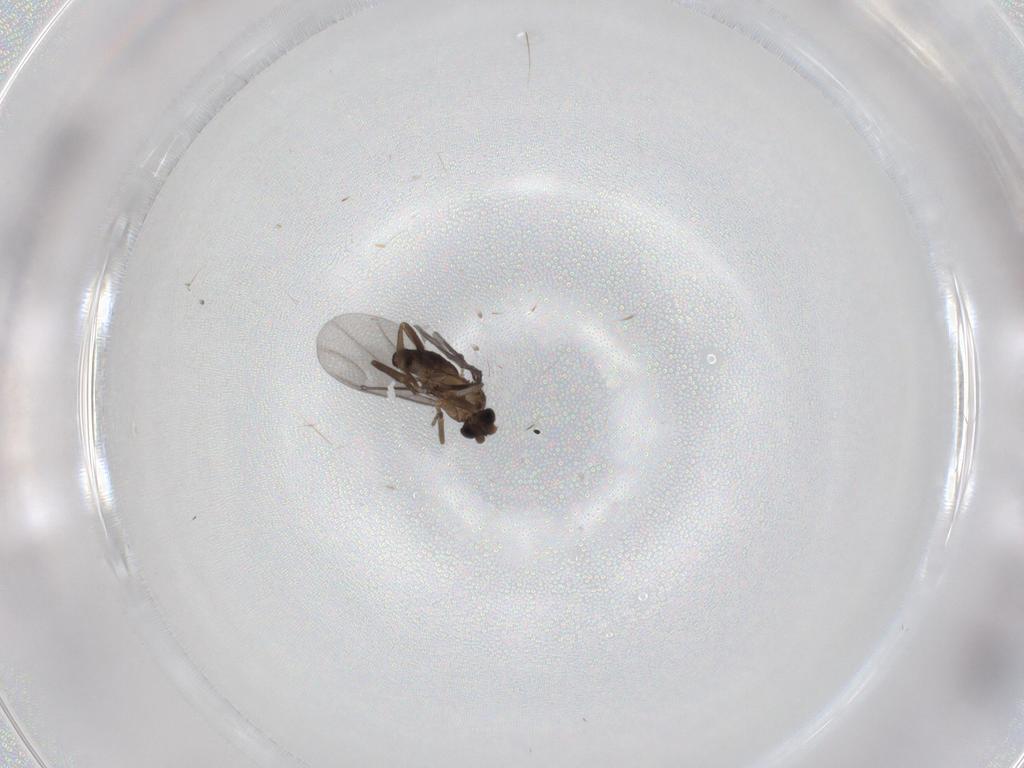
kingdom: Animalia
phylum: Arthropoda
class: Insecta
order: Diptera
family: Phoridae
